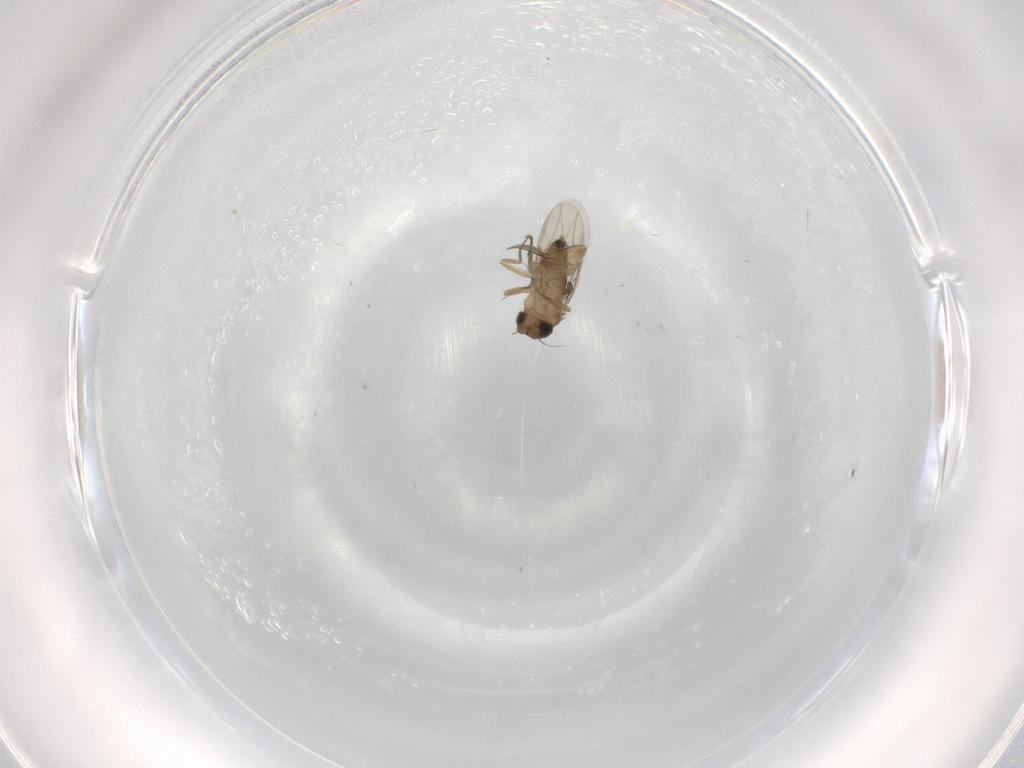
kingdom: Animalia
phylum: Arthropoda
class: Insecta
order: Diptera
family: Phoridae
